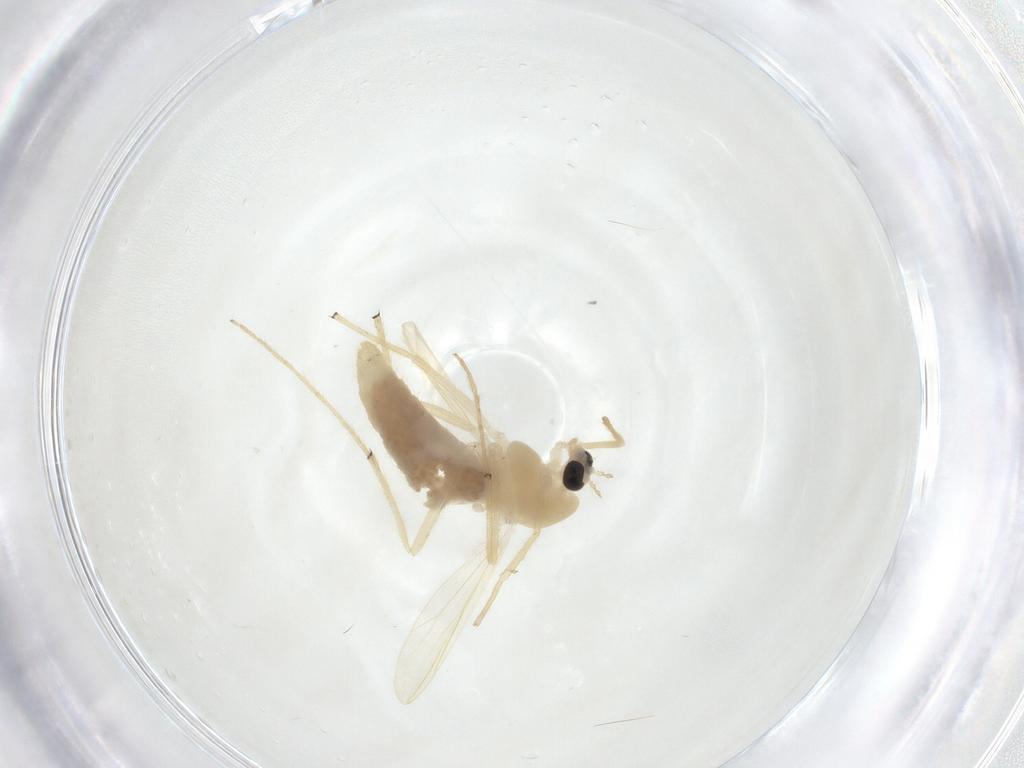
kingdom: Animalia
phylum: Arthropoda
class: Insecta
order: Diptera
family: Chironomidae
